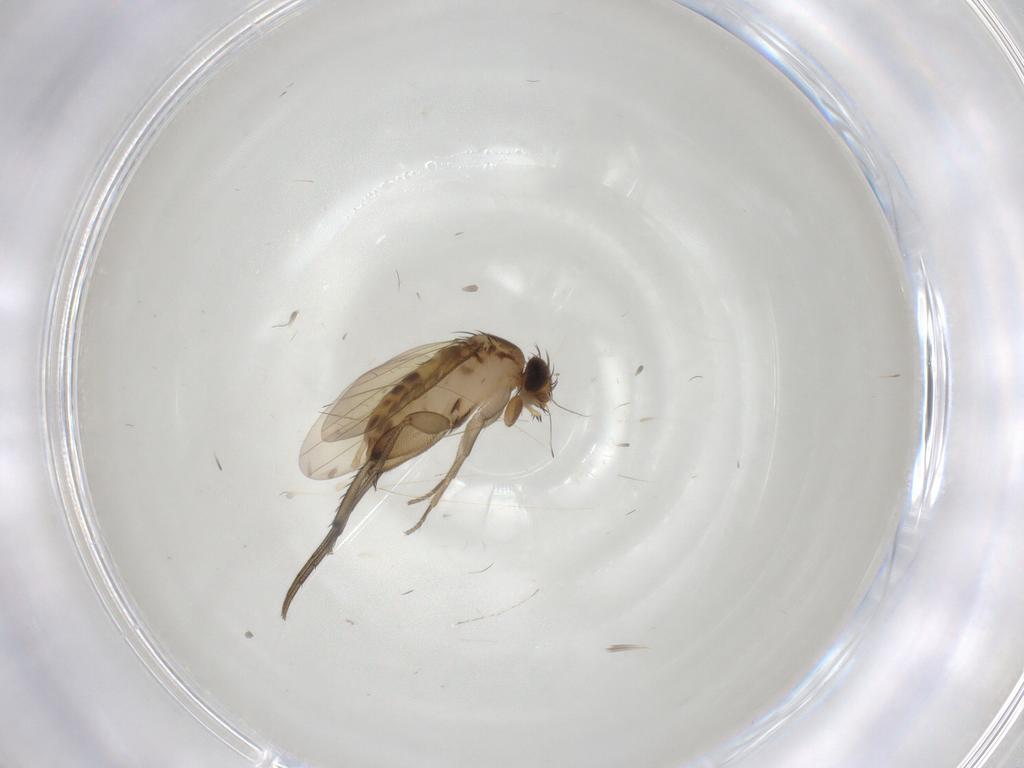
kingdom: Animalia
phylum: Arthropoda
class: Insecta
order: Diptera
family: Phoridae
